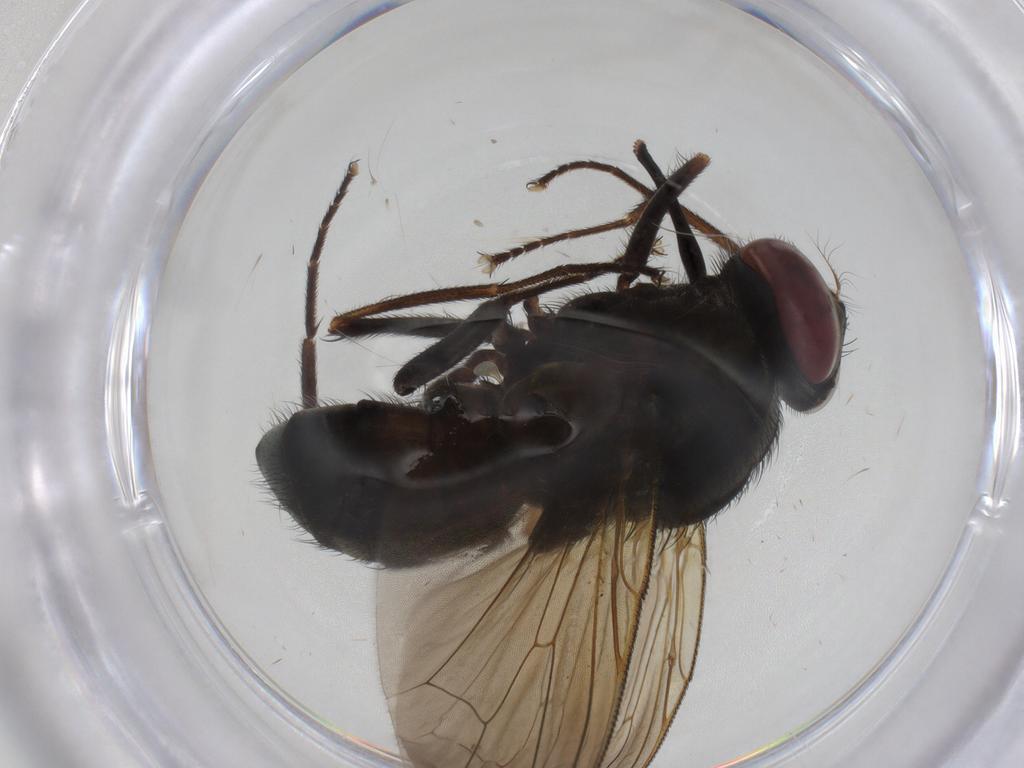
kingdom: Animalia
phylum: Arthropoda
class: Insecta
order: Diptera
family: Muscidae
